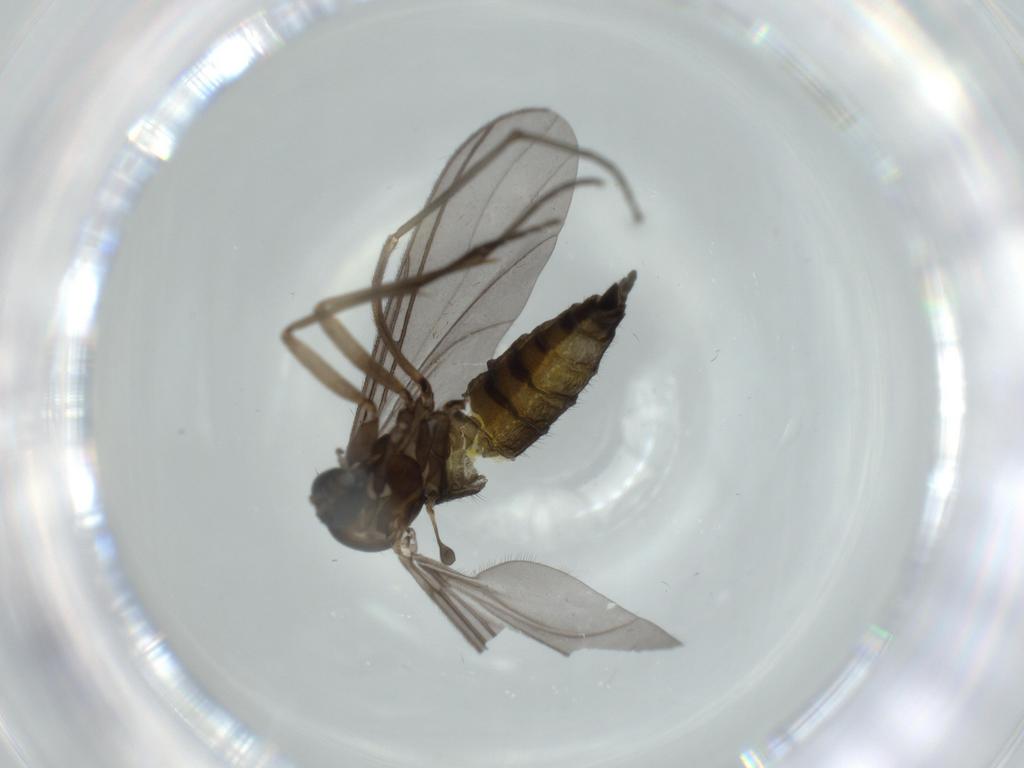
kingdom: Animalia
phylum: Arthropoda
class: Insecta
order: Diptera
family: Sciaridae
